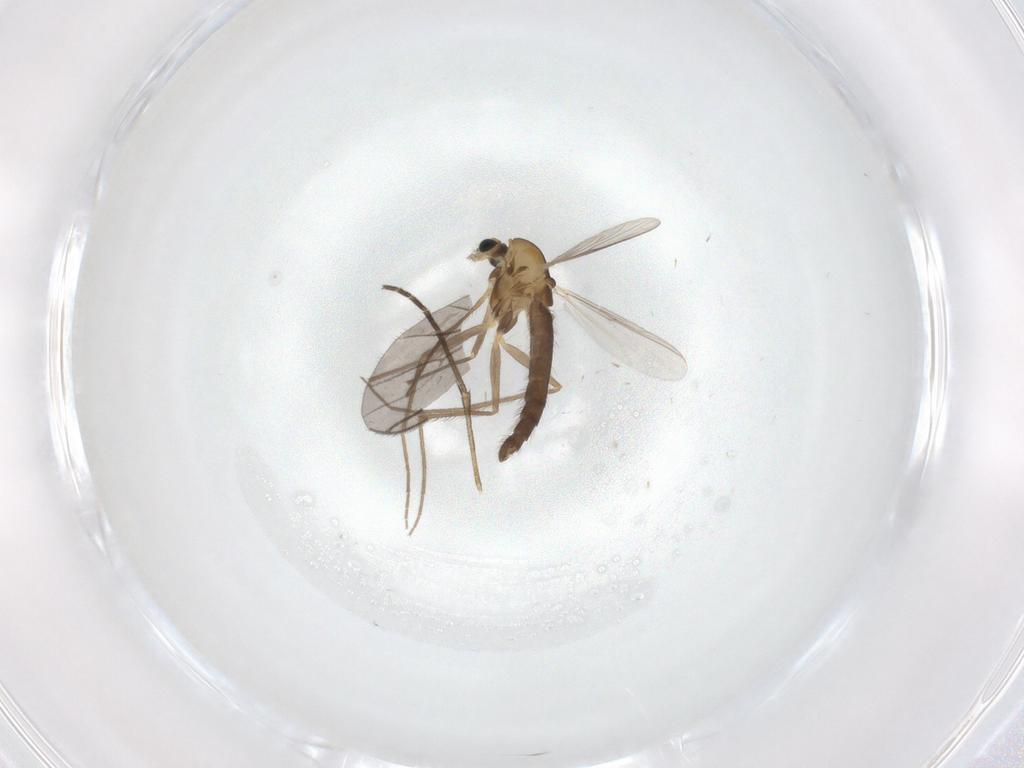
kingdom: Animalia
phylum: Arthropoda
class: Insecta
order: Diptera
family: Chironomidae
